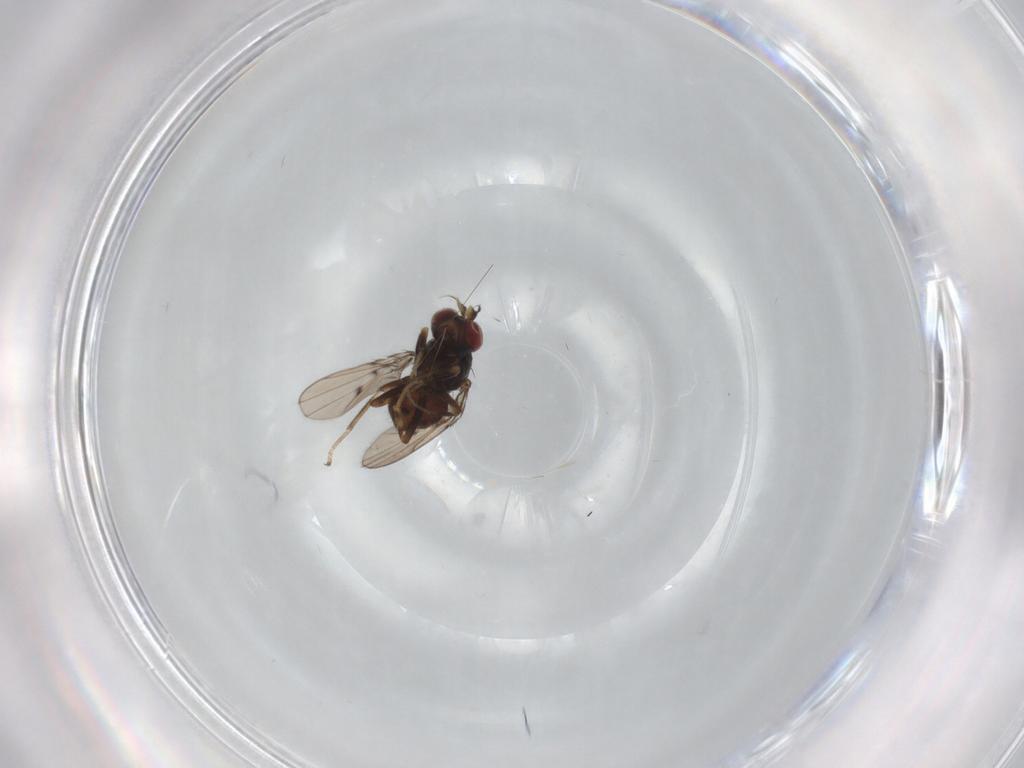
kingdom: Animalia
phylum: Arthropoda
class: Insecta
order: Diptera
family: Ephydridae
